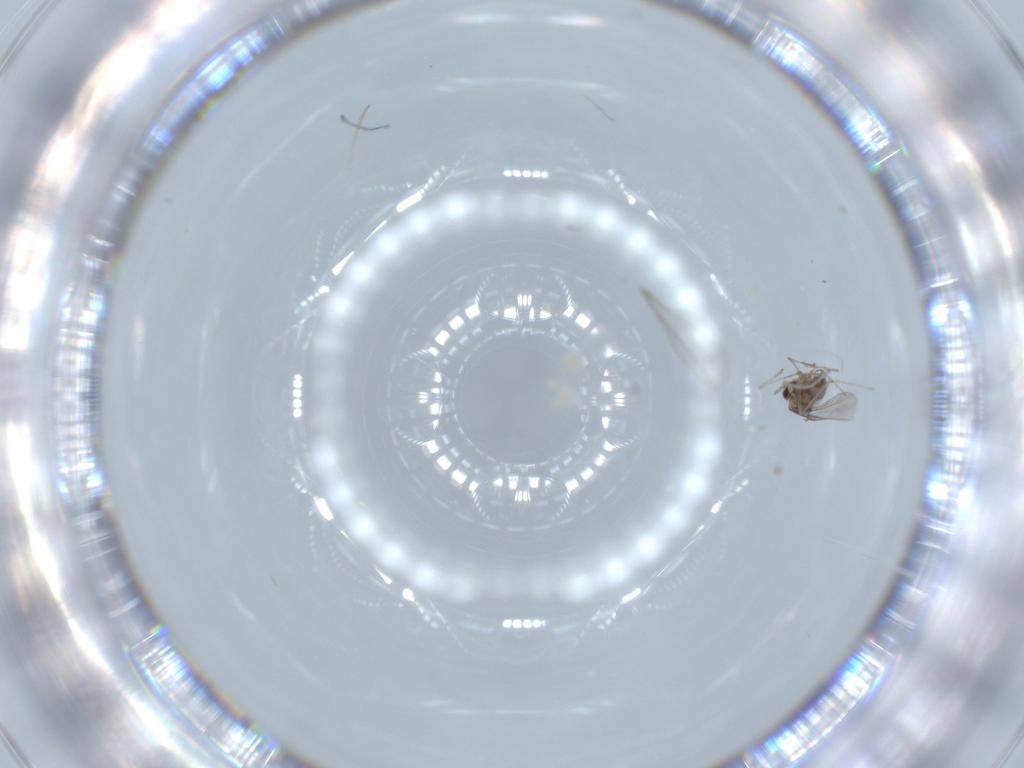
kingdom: Animalia
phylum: Arthropoda
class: Insecta
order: Diptera
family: Cecidomyiidae
